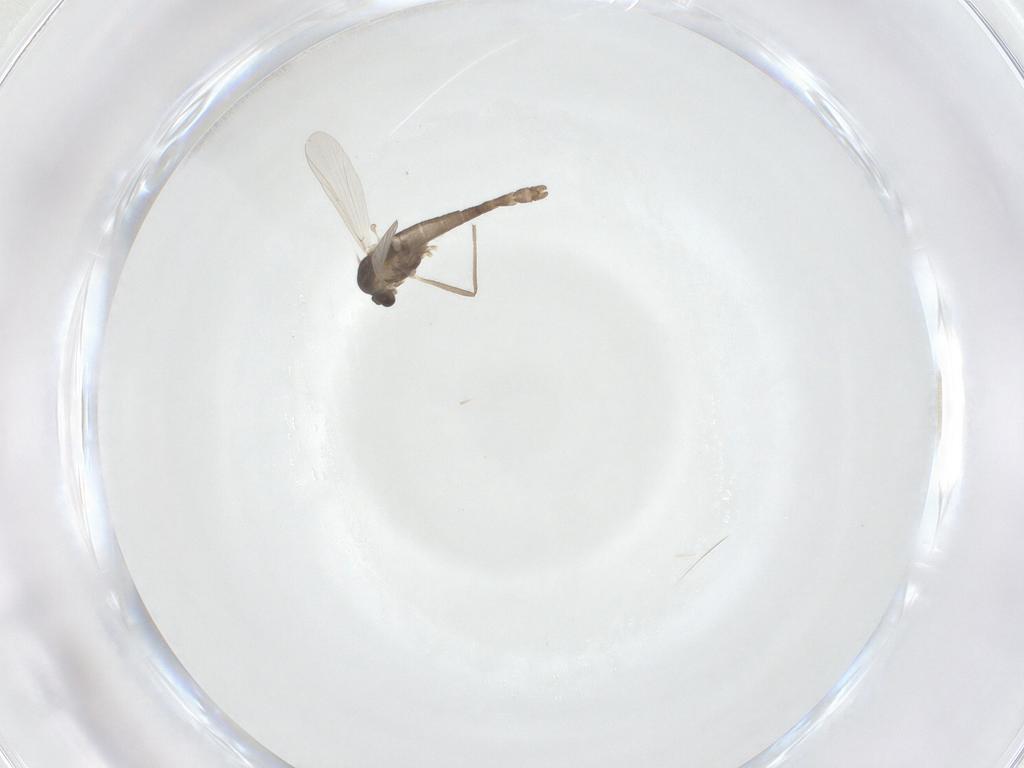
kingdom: Animalia
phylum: Arthropoda
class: Insecta
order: Diptera
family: Chironomidae
